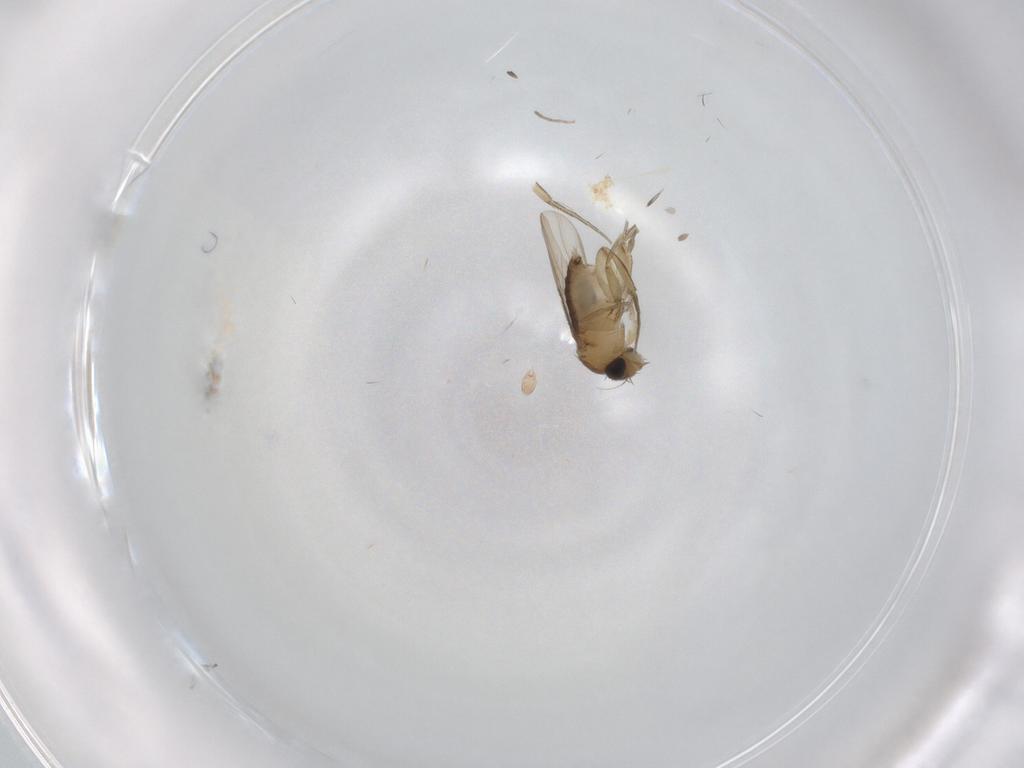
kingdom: Animalia
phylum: Arthropoda
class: Insecta
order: Diptera
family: Phoridae
